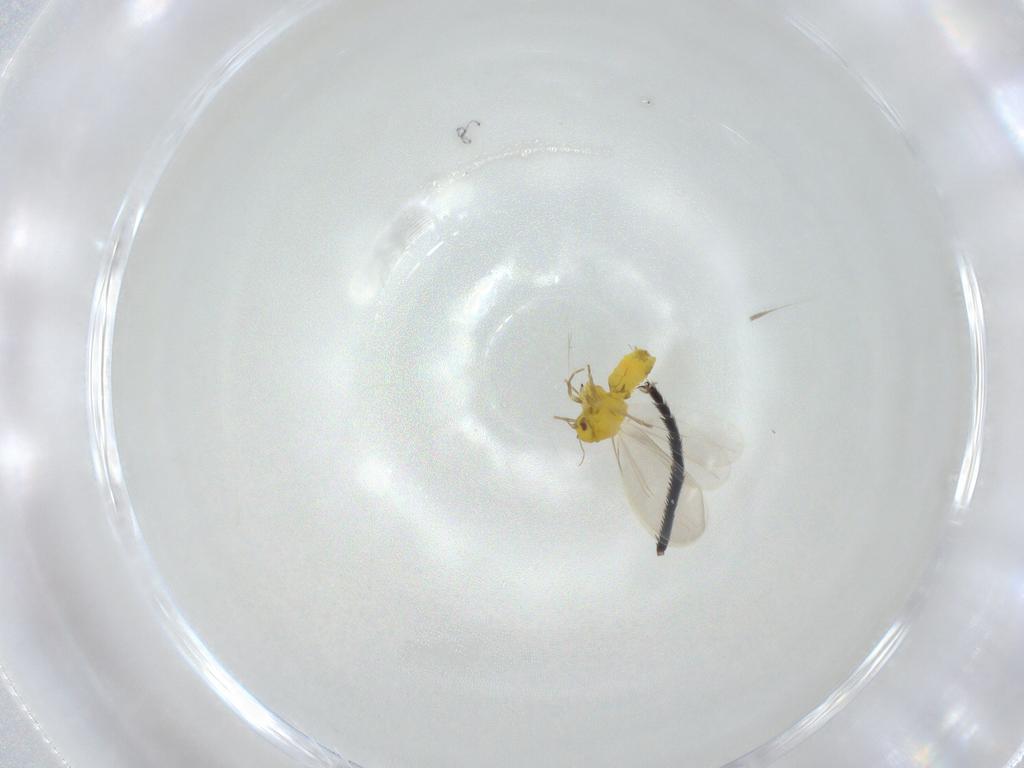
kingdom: Animalia
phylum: Arthropoda
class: Insecta
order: Hemiptera
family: Aleyrodidae
